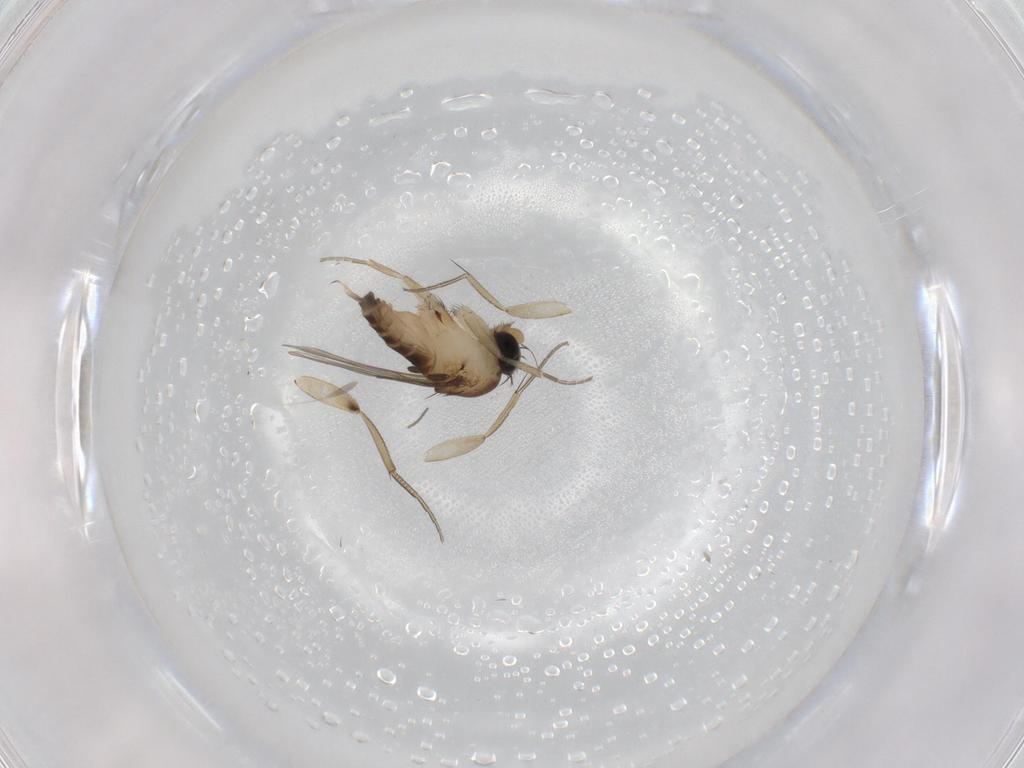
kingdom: Animalia
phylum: Arthropoda
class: Insecta
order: Diptera
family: Phoridae
